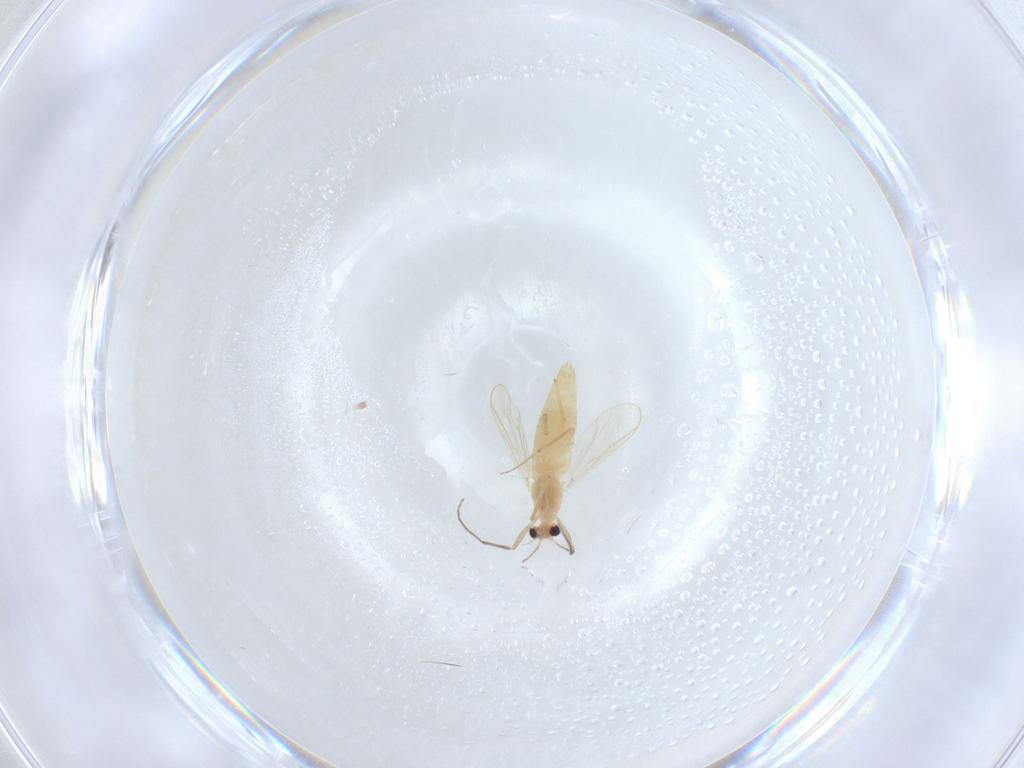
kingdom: Animalia
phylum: Arthropoda
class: Insecta
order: Diptera
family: Chironomidae
